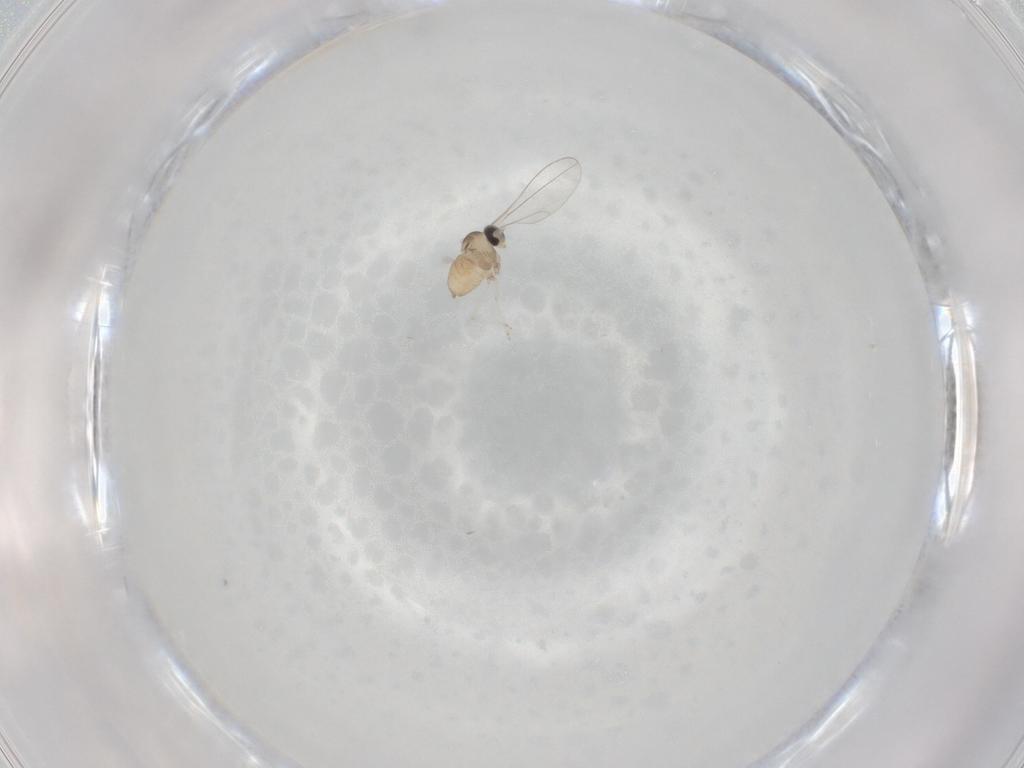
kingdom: Animalia
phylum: Arthropoda
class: Insecta
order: Diptera
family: Cecidomyiidae
